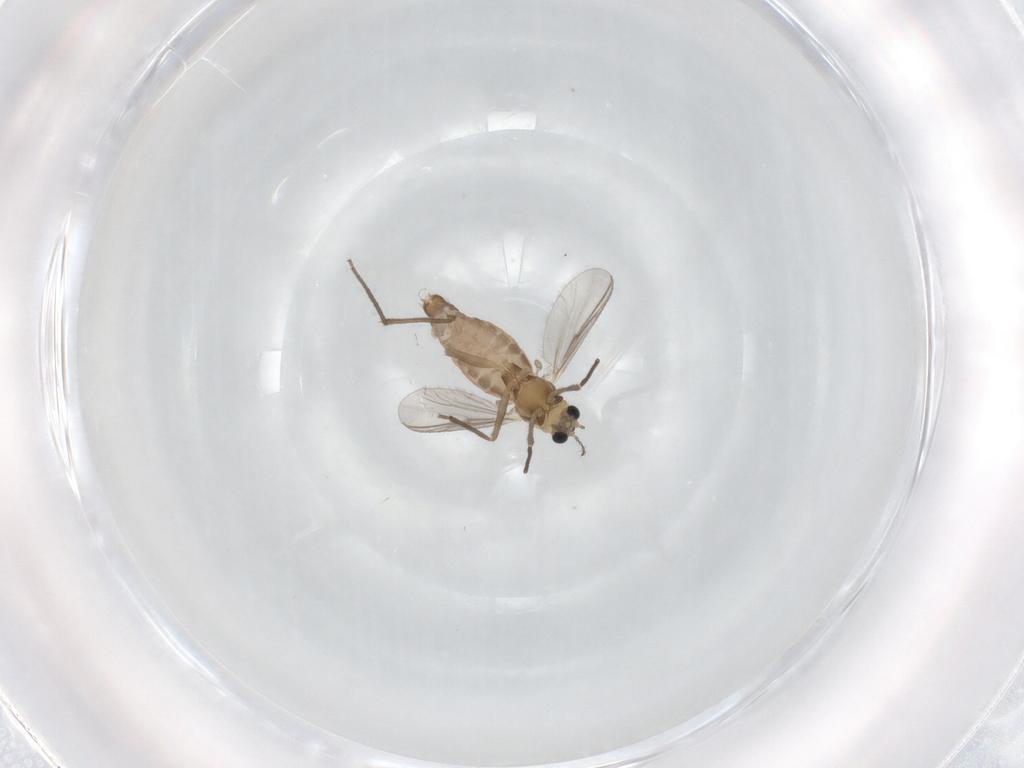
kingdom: Animalia
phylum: Arthropoda
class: Insecta
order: Diptera
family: Chironomidae
